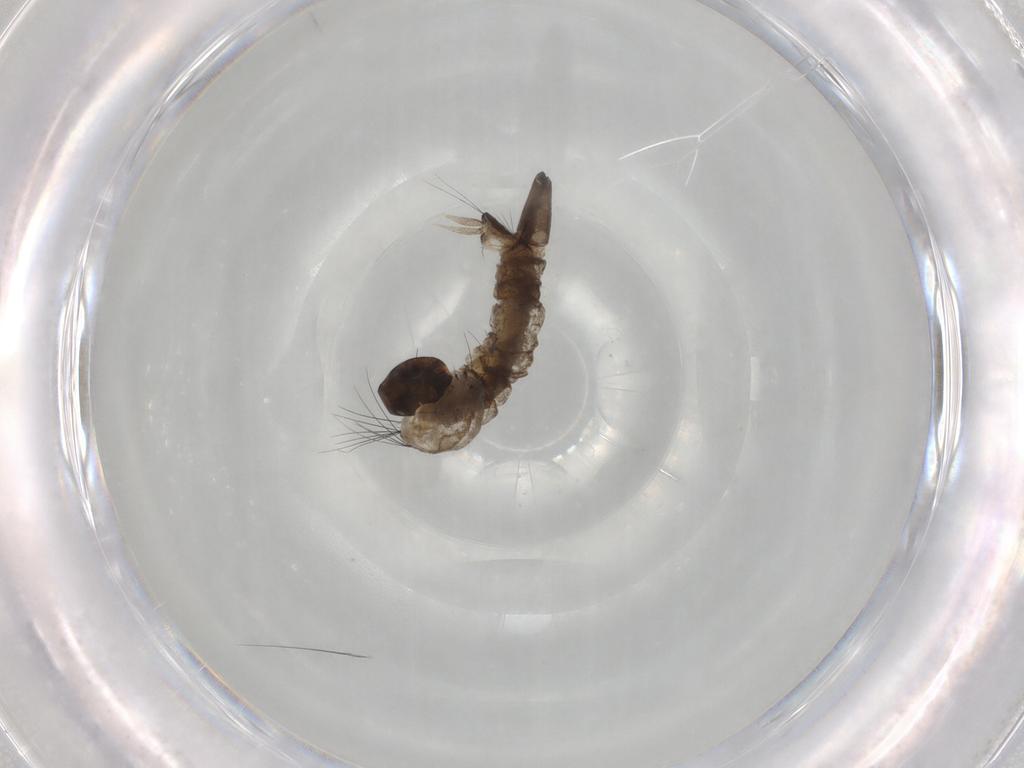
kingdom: Animalia
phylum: Arthropoda
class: Insecta
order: Diptera
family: Culicidae
